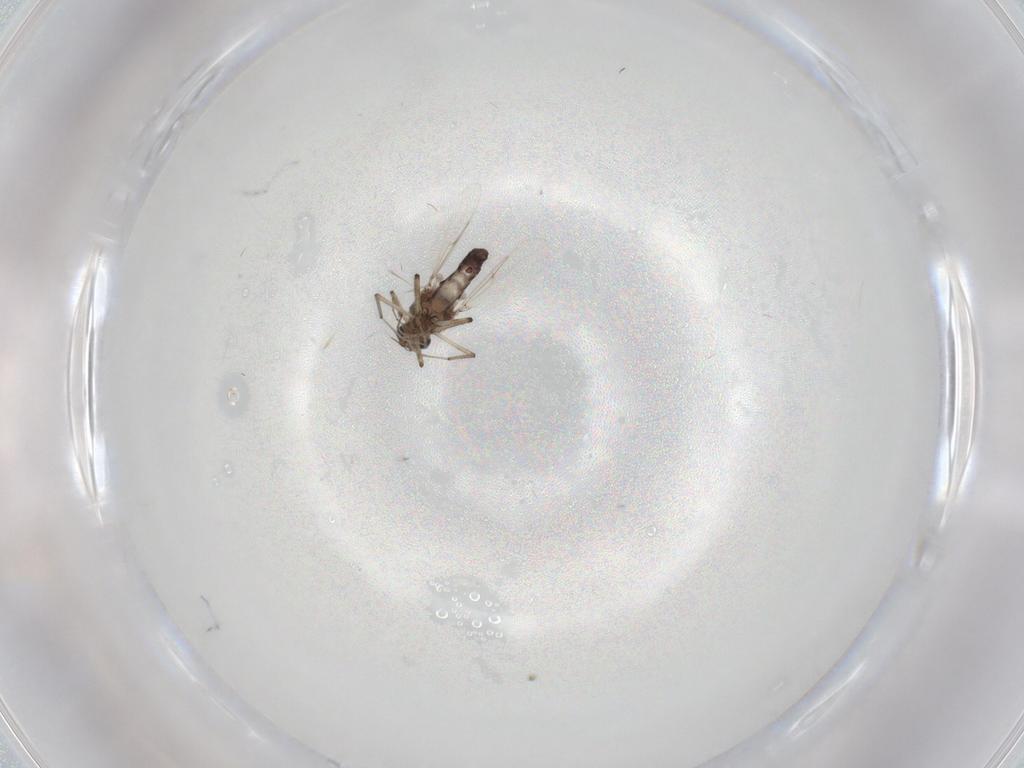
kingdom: Animalia
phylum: Arthropoda
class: Insecta
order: Diptera
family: Ceratopogonidae
